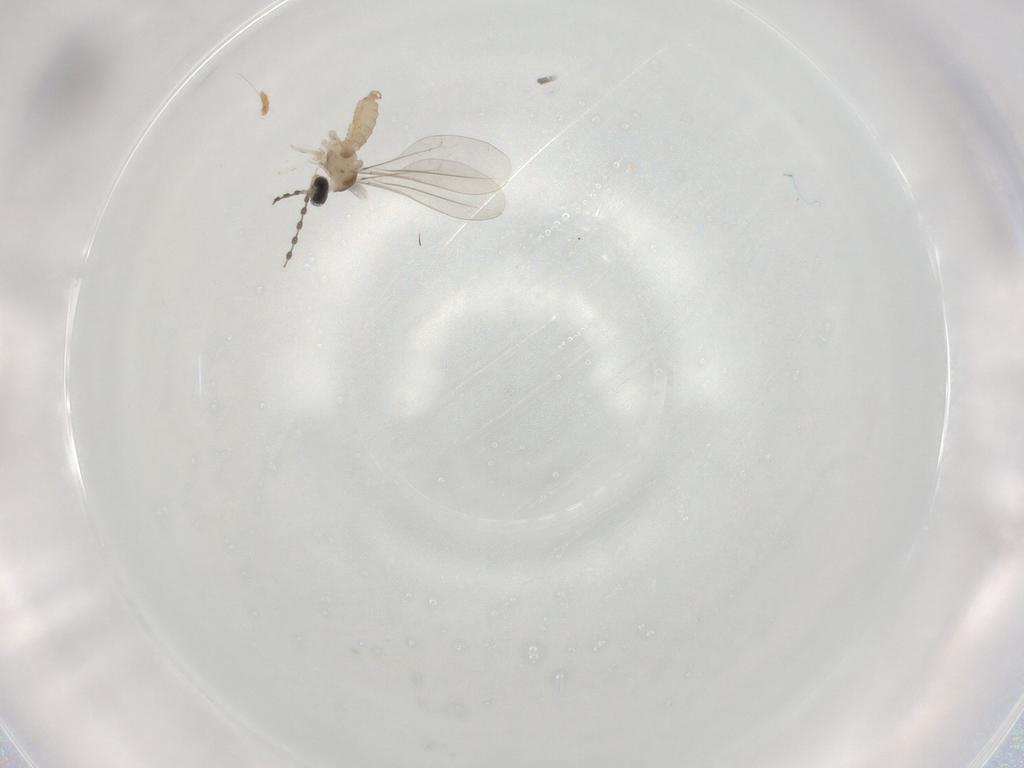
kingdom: Animalia
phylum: Arthropoda
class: Insecta
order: Diptera
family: Phoridae
